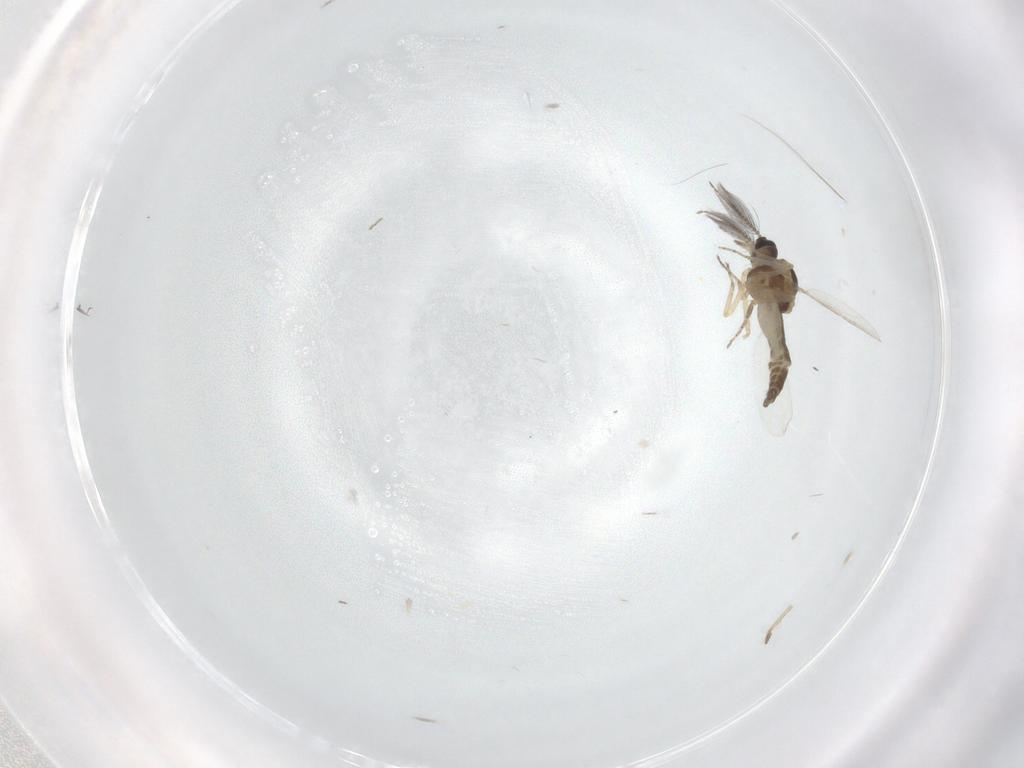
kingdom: Animalia
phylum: Arthropoda
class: Insecta
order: Diptera
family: Ceratopogonidae
